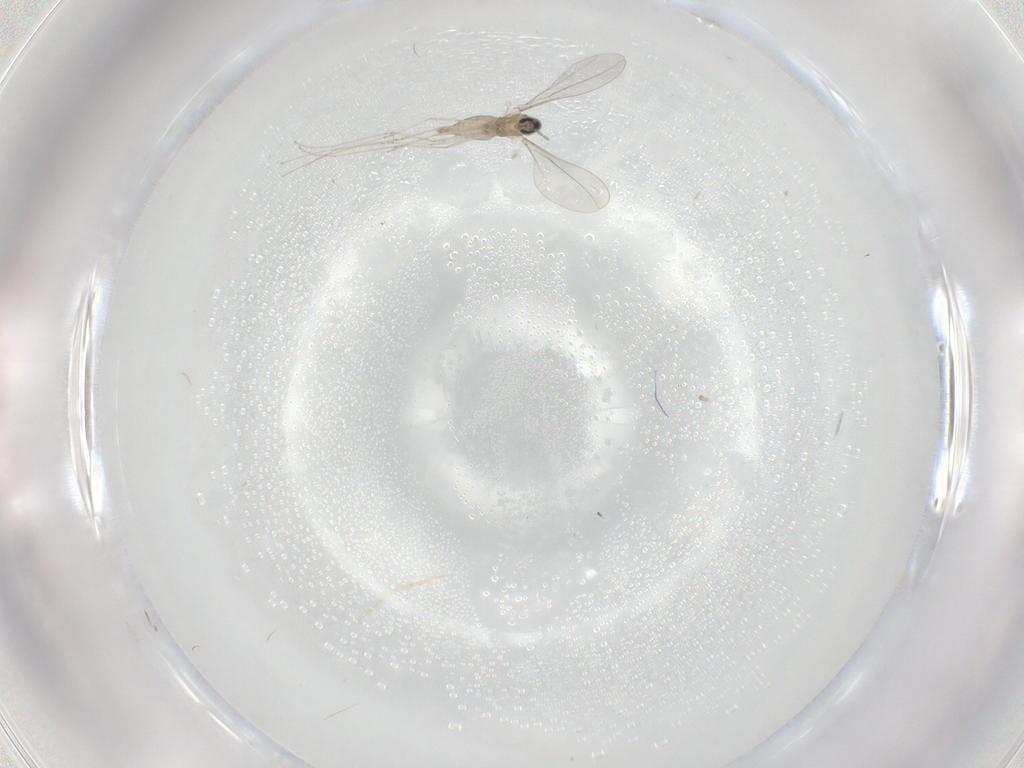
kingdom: Animalia
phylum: Arthropoda
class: Insecta
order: Diptera
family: Cecidomyiidae
